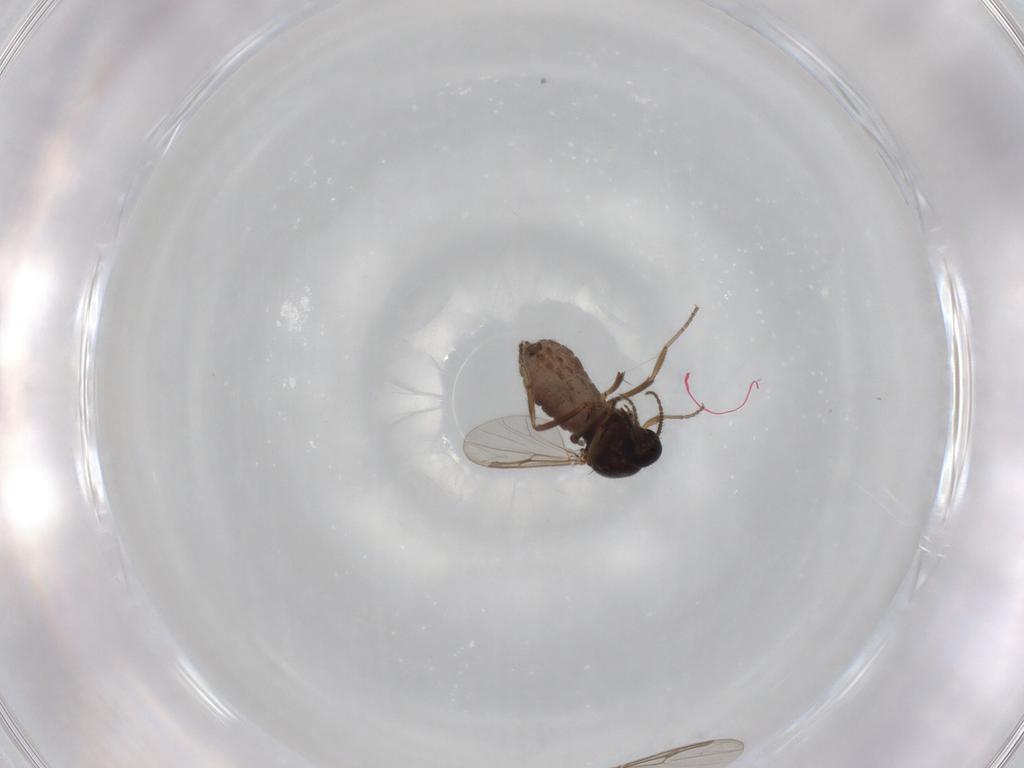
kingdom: Animalia
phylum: Arthropoda
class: Insecta
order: Diptera
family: Ceratopogonidae
